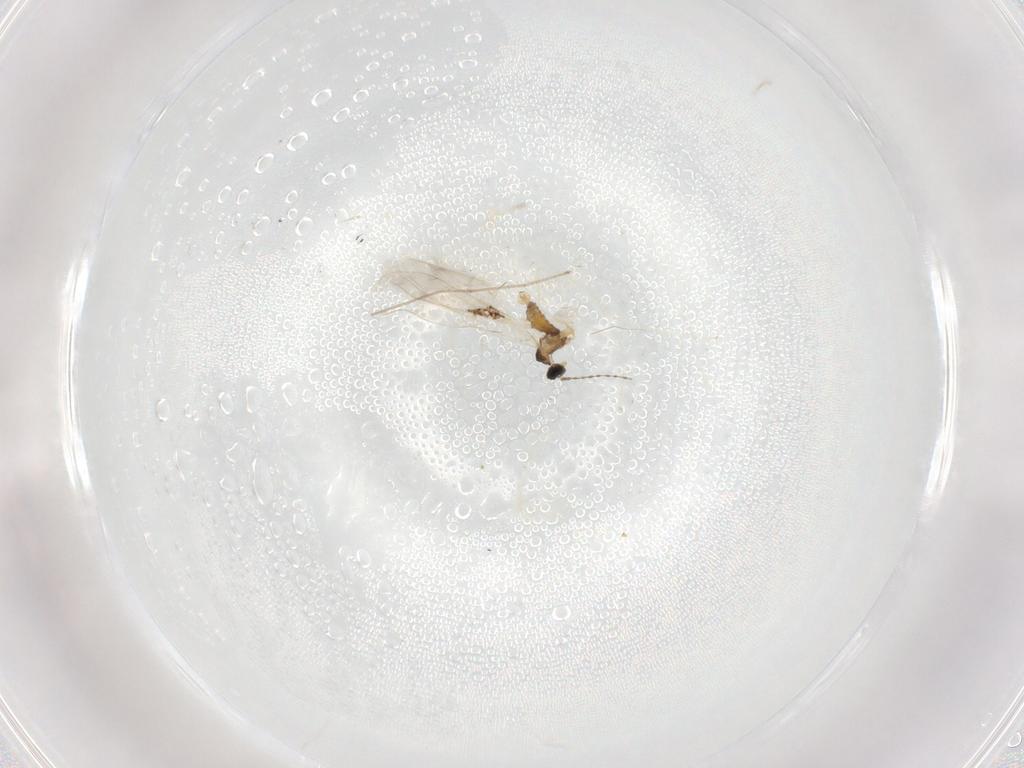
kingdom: Animalia
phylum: Arthropoda
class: Insecta
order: Diptera
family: Cecidomyiidae
